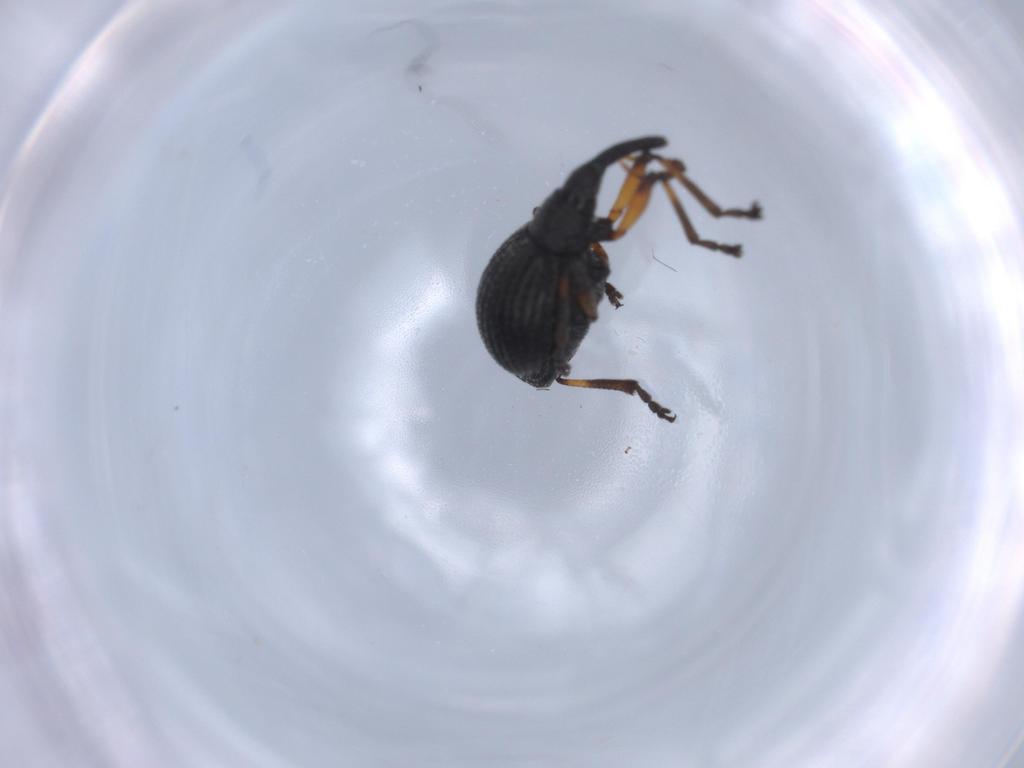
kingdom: Animalia
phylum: Arthropoda
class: Insecta
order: Coleoptera
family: Brentidae
